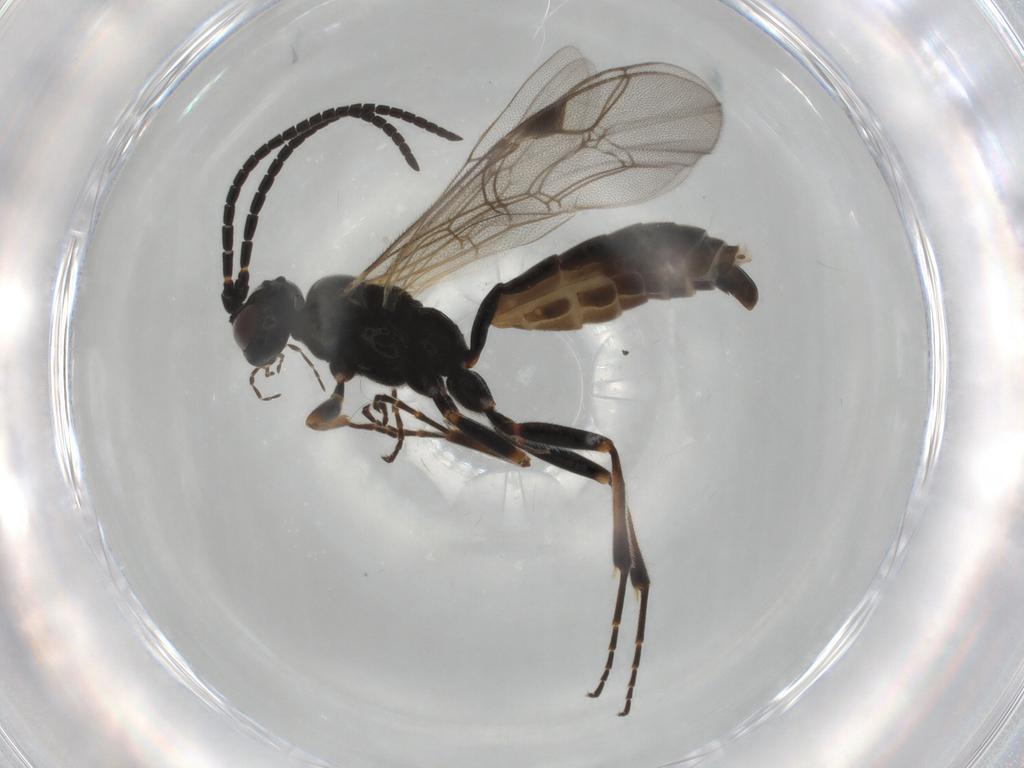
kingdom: Animalia
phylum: Arthropoda
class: Insecta
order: Hymenoptera
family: Ichneumonidae
